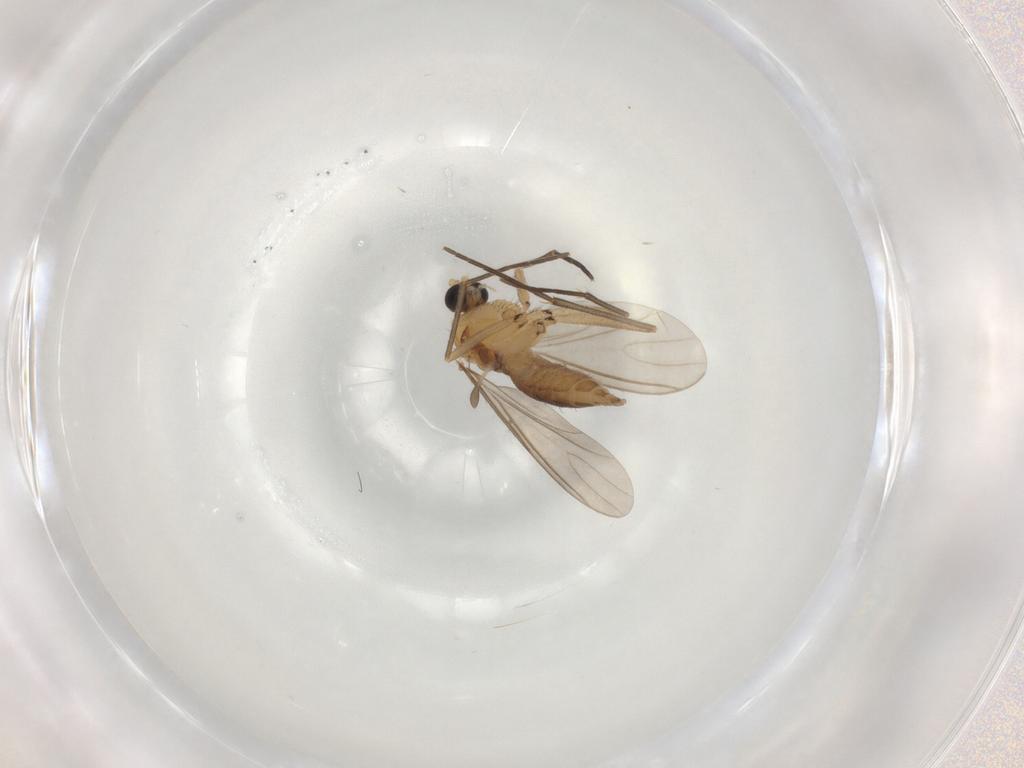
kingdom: Animalia
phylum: Arthropoda
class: Insecta
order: Diptera
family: Sciaridae
